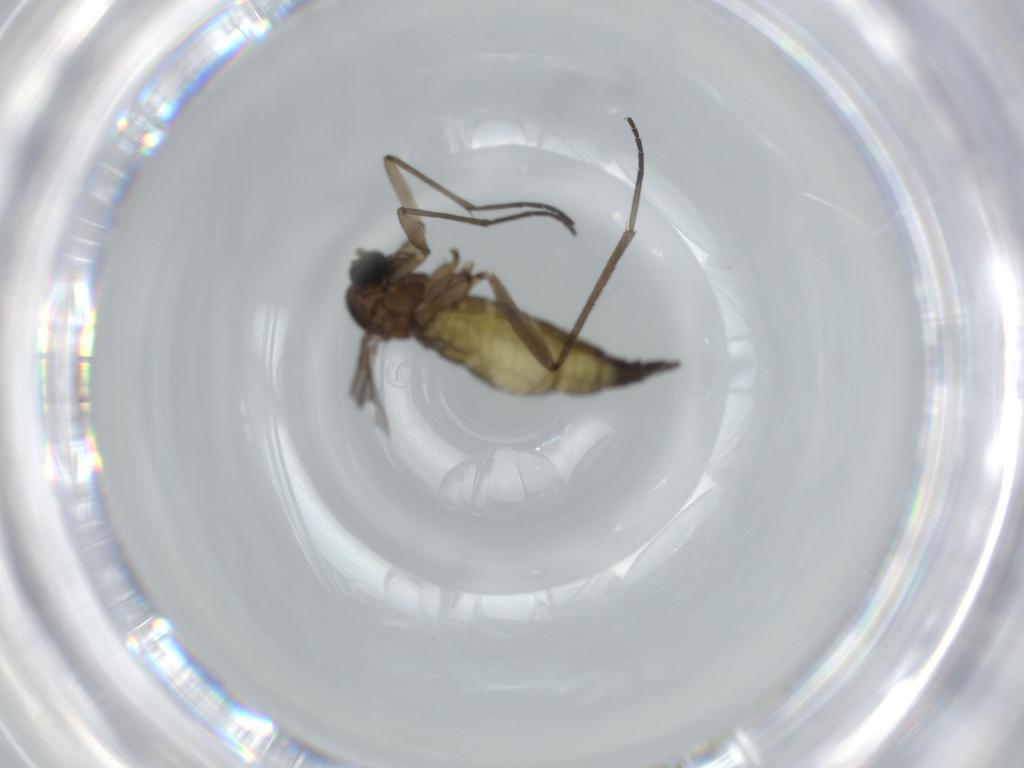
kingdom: Animalia
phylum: Arthropoda
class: Insecta
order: Diptera
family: Sciaridae
